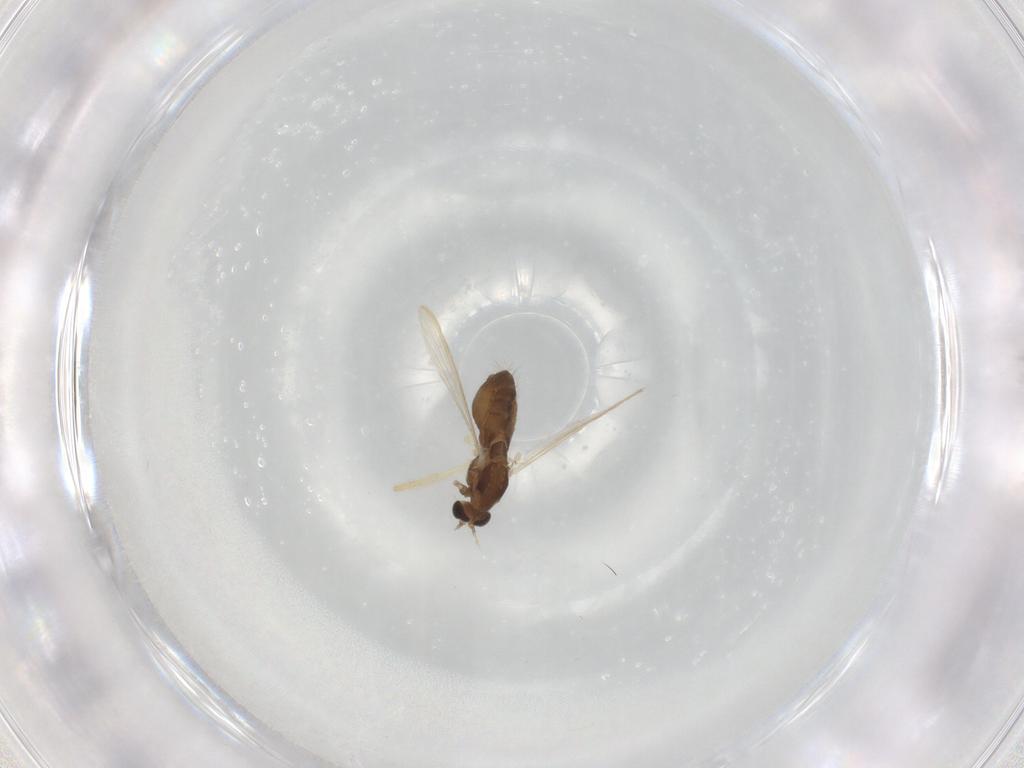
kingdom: Animalia
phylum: Arthropoda
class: Insecta
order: Diptera
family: Chironomidae
